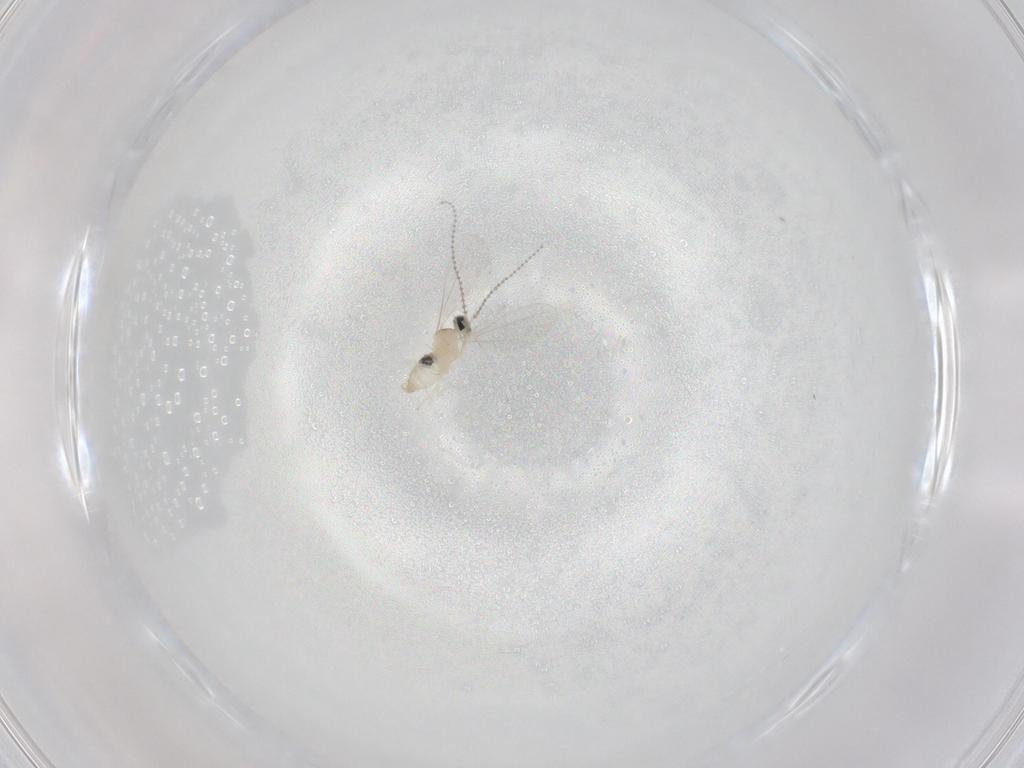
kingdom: Animalia
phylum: Arthropoda
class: Insecta
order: Diptera
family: Cecidomyiidae
